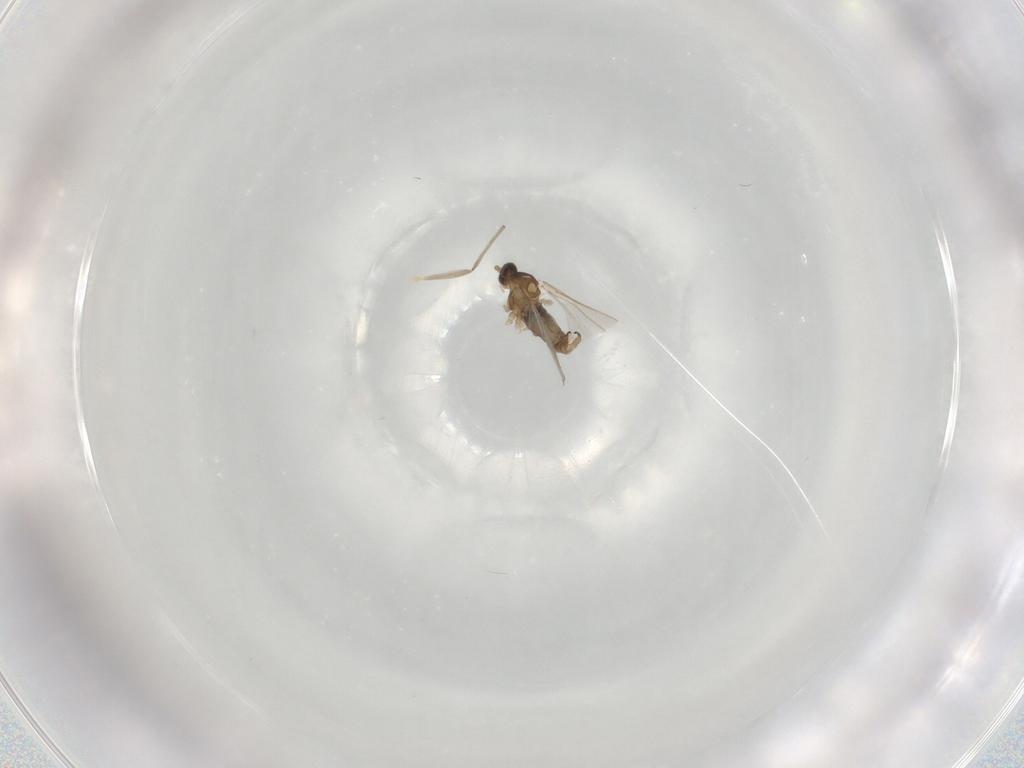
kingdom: Animalia
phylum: Arthropoda
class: Insecta
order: Diptera
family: Cecidomyiidae
